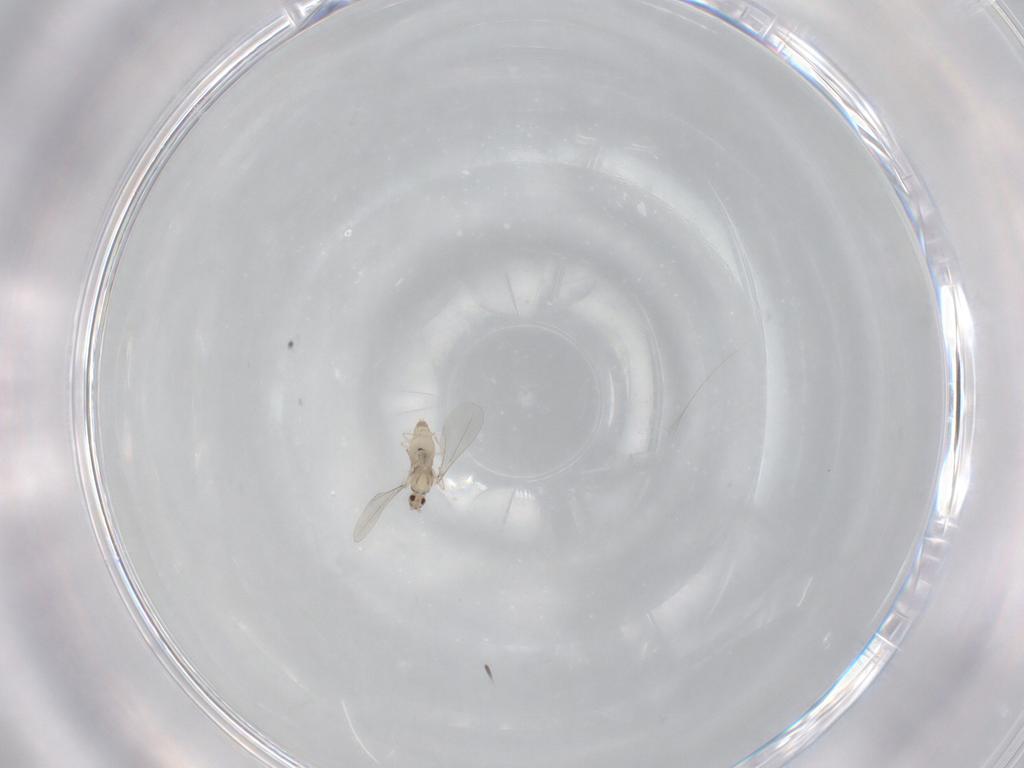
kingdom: Animalia
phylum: Arthropoda
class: Insecta
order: Diptera
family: Cecidomyiidae
